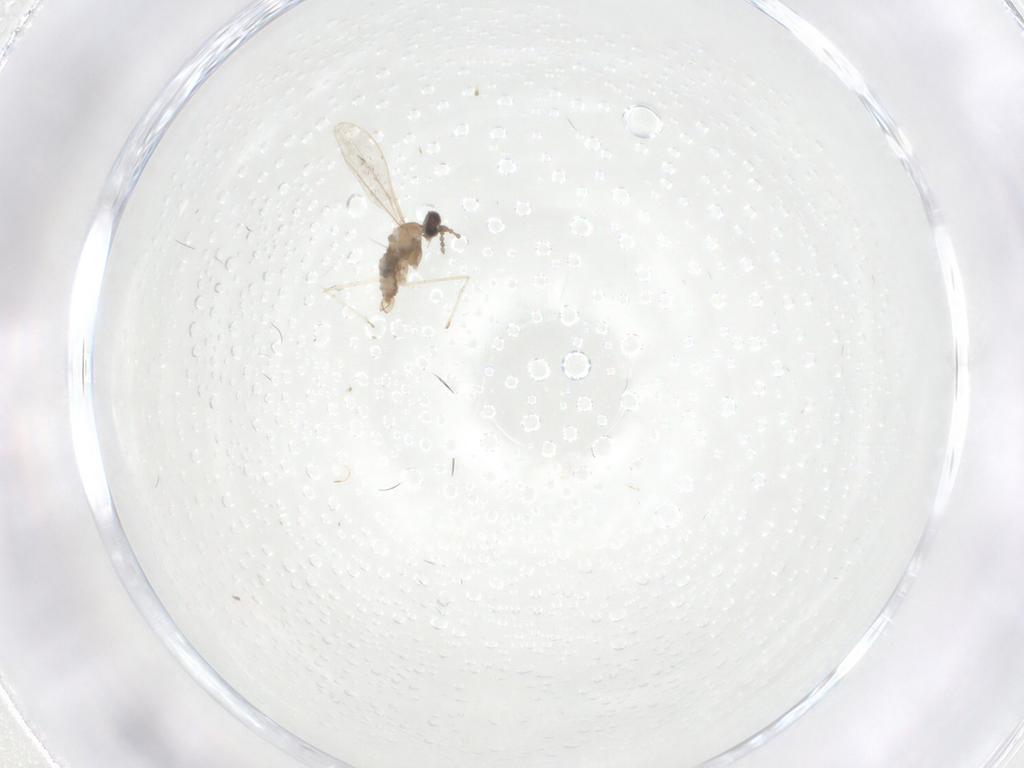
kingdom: Animalia
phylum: Arthropoda
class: Insecta
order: Diptera
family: Cecidomyiidae
